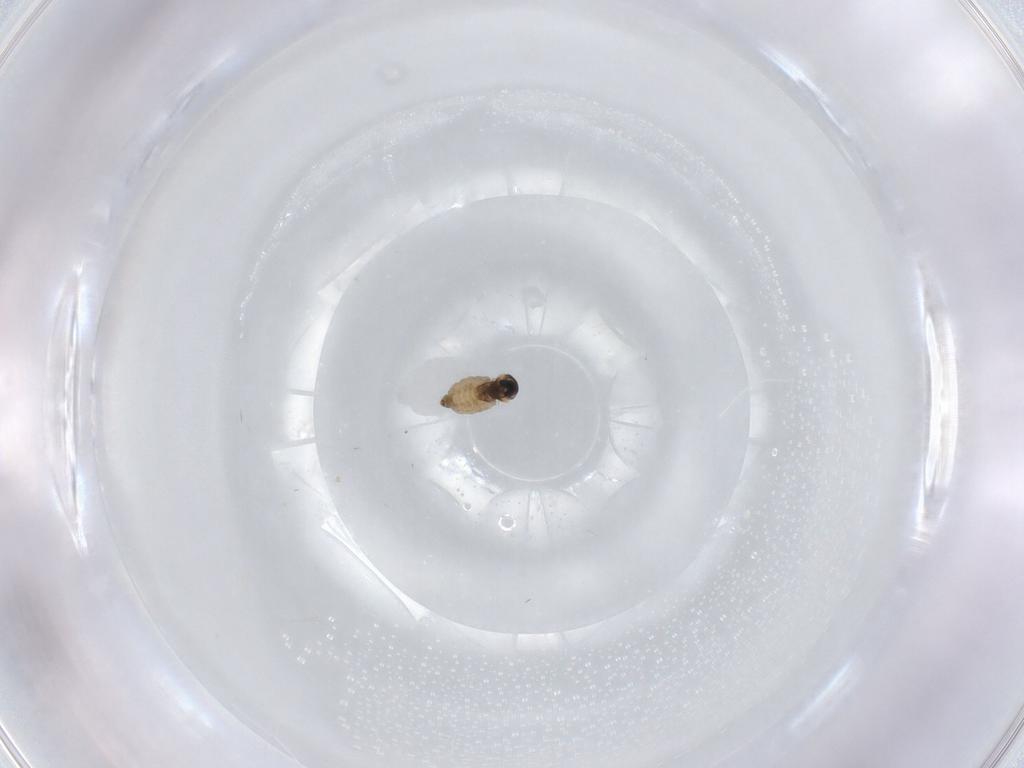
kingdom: Animalia
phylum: Arthropoda
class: Insecta
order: Diptera
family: Cecidomyiidae
